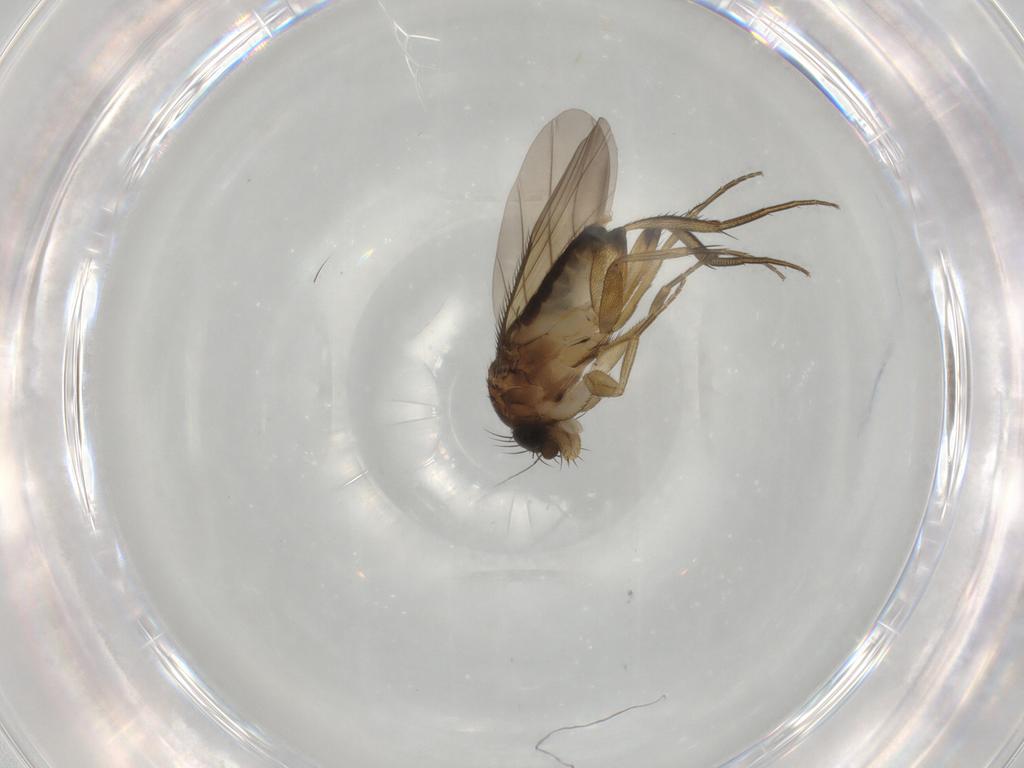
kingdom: Animalia
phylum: Arthropoda
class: Insecta
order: Diptera
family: Phoridae
